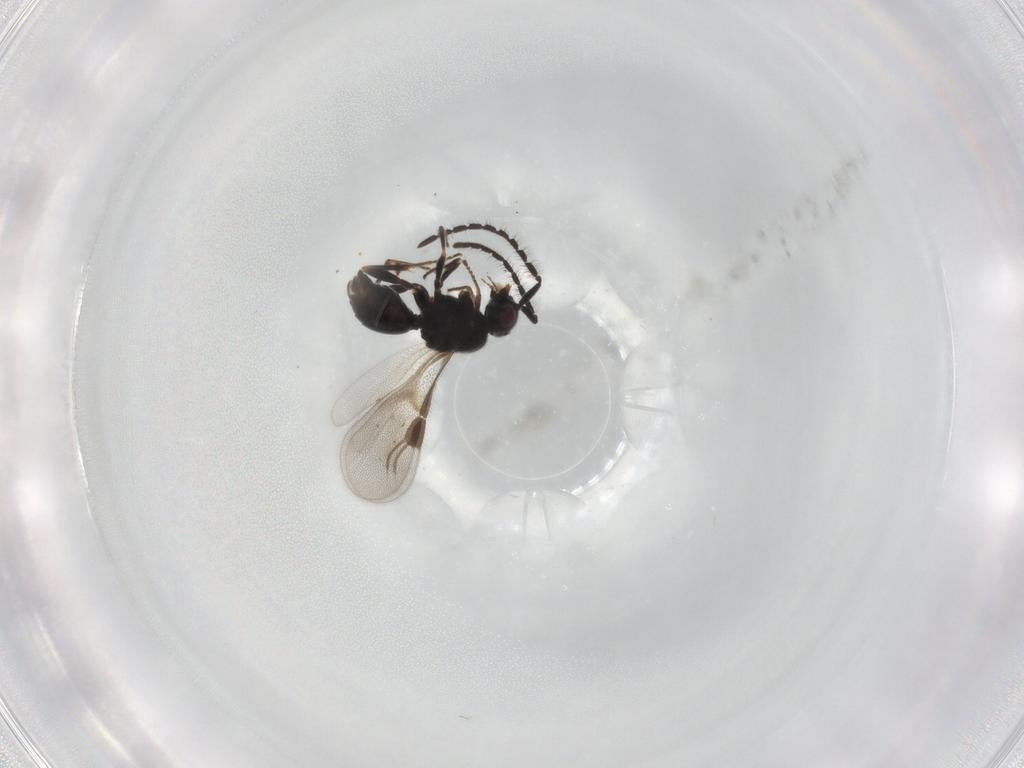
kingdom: Animalia
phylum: Arthropoda
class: Insecta
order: Hymenoptera
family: Megaspilidae
